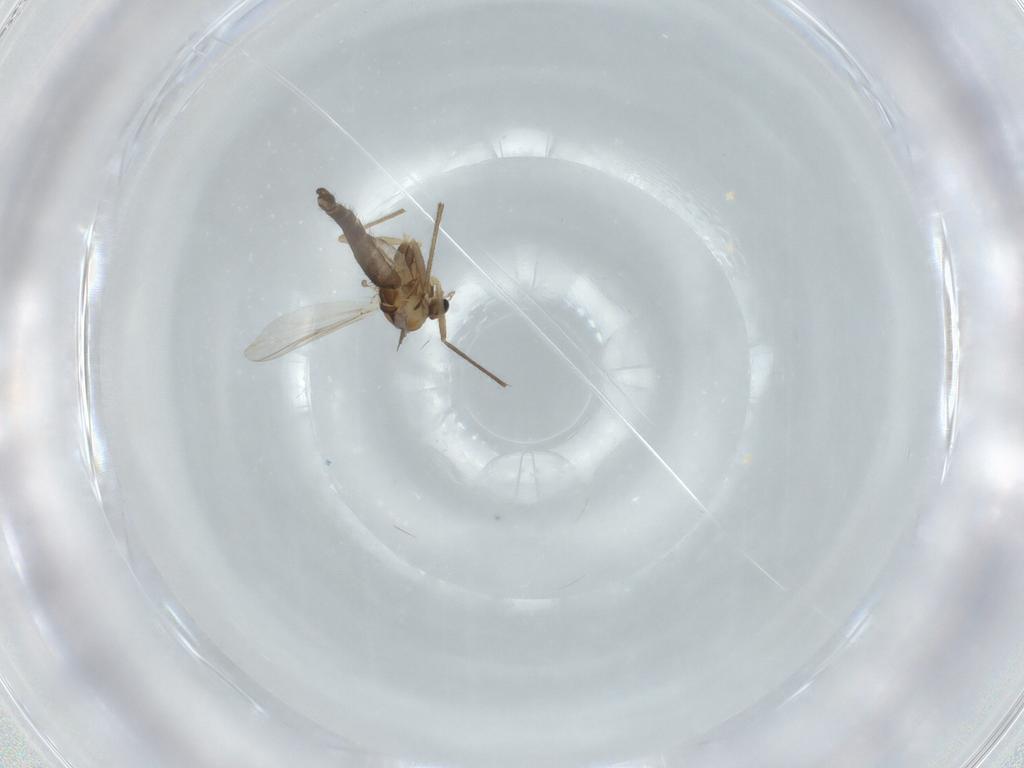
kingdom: Animalia
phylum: Arthropoda
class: Insecta
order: Diptera
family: Chironomidae
